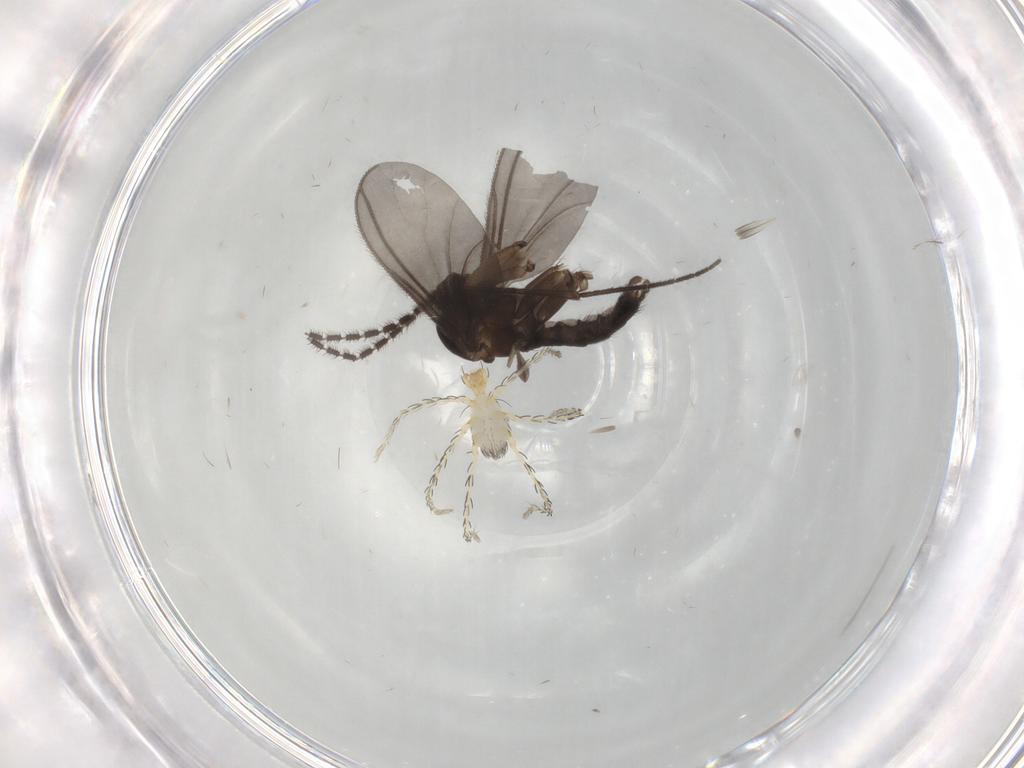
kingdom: Animalia
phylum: Arthropoda
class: Insecta
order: Diptera
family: Sciaridae
